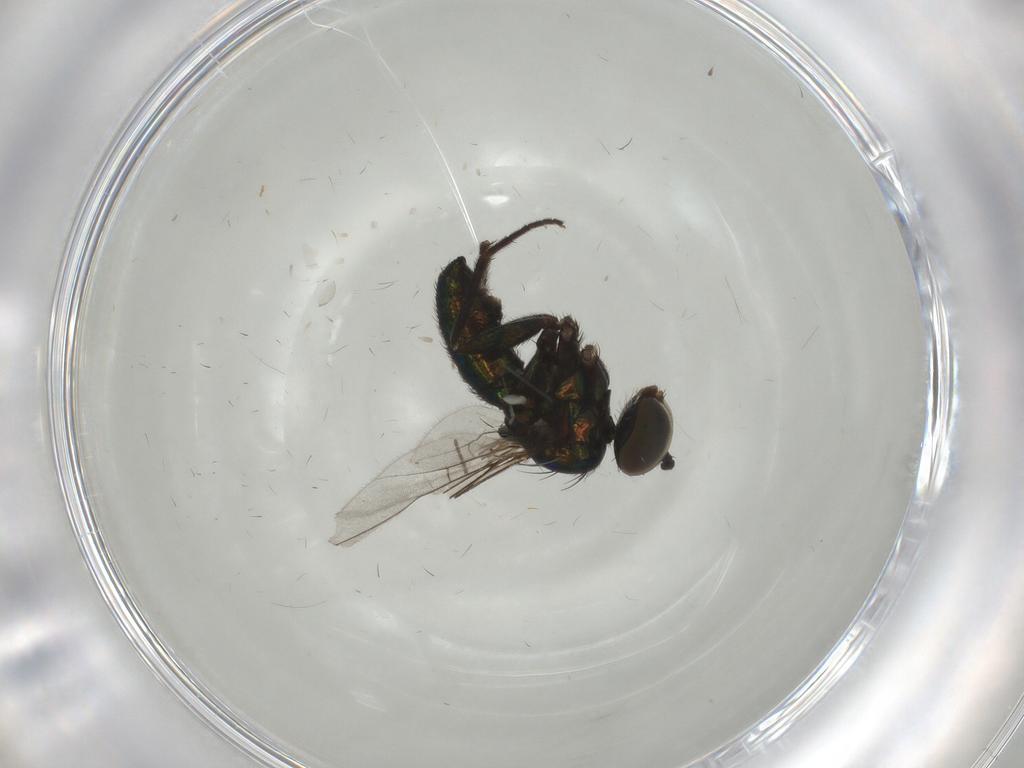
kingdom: Animalia
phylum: Arthropoda
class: Insecta
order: Diptera
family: Dolichopodidae
